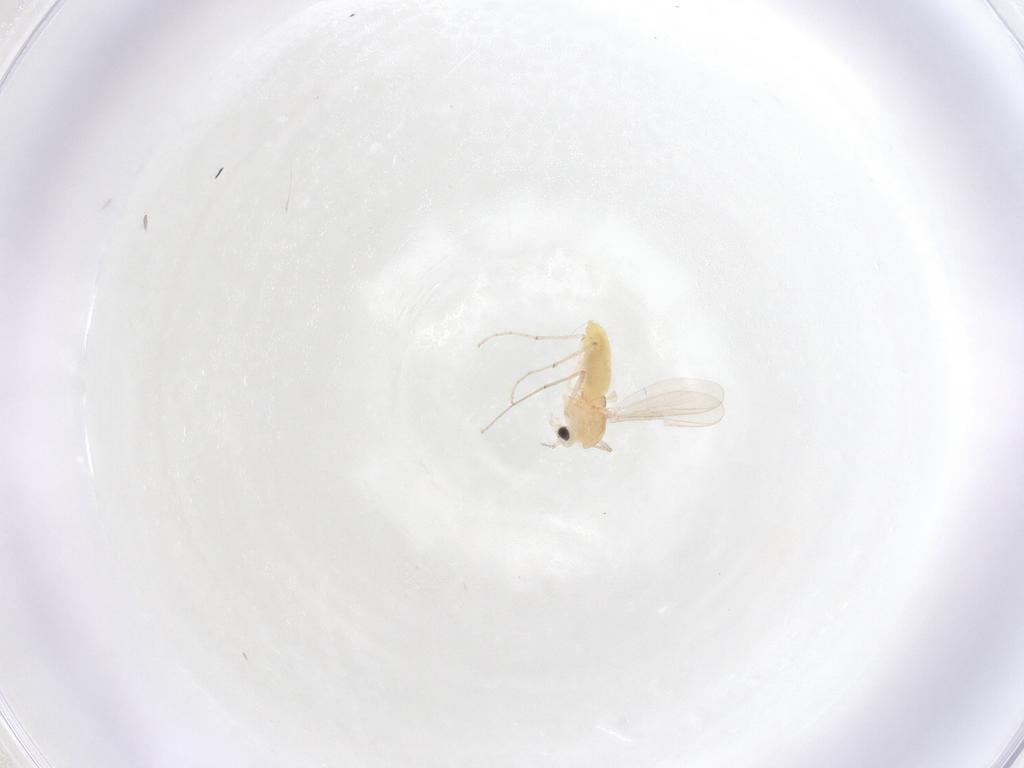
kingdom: Animalia
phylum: Arthropoda
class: Insecta
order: Diptera
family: Chironomidae
